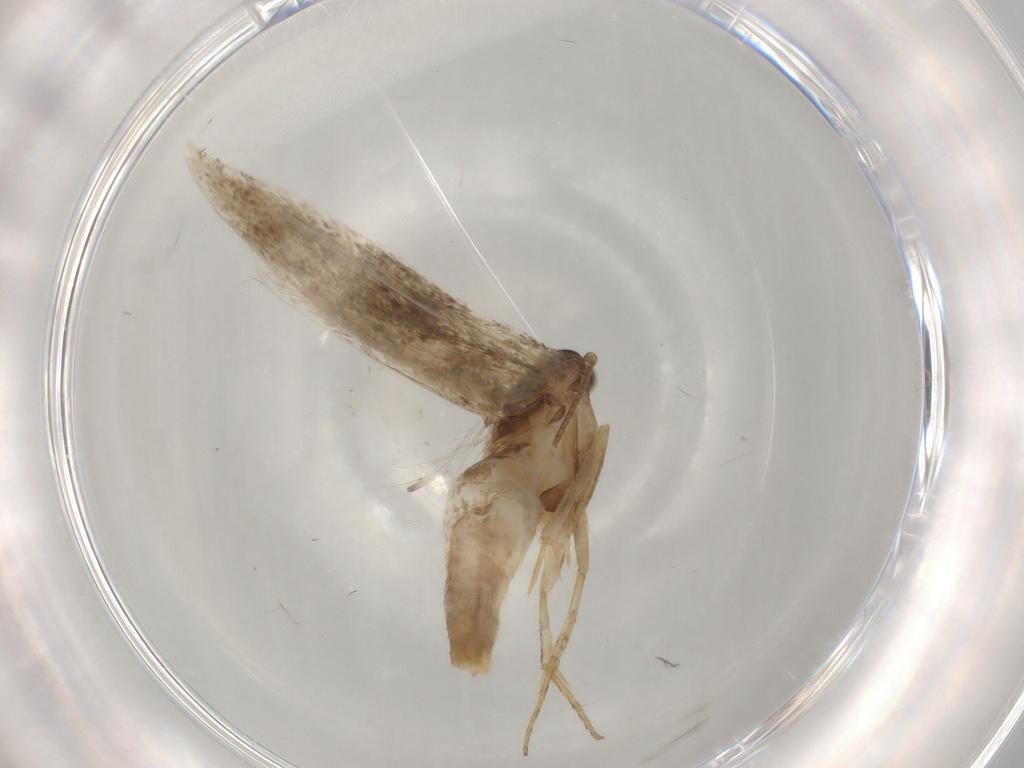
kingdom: Animalia
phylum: Arthropoda
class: Insecta
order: Lepidoptera
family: Gelechiidae
